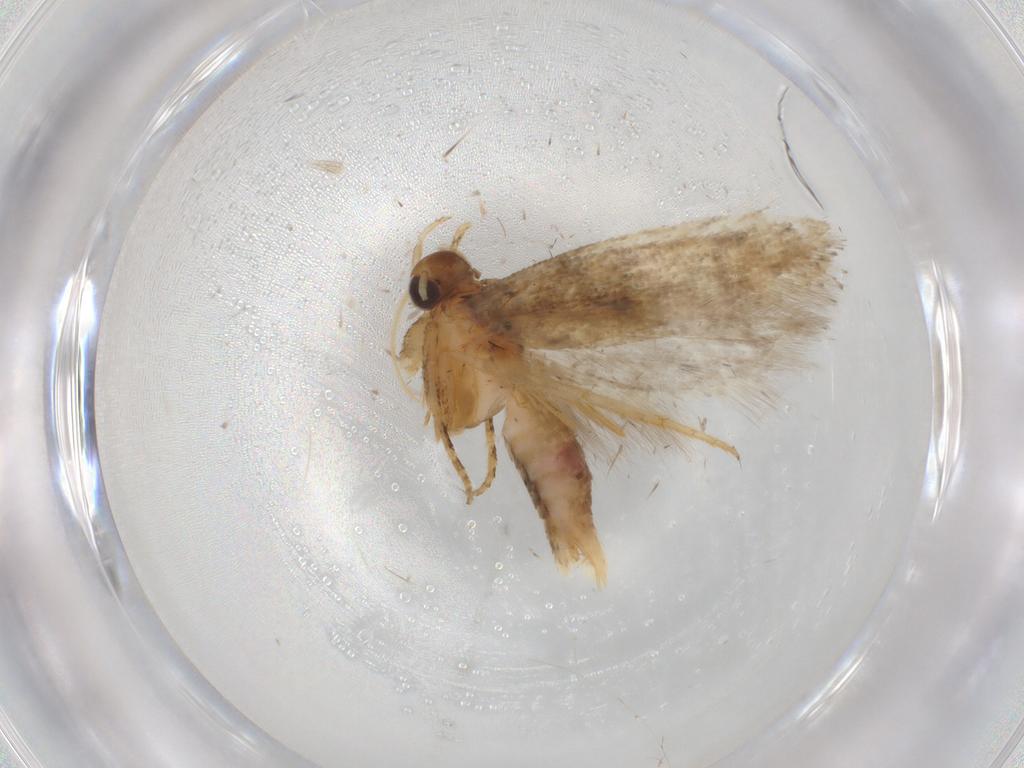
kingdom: Animalia
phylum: Arthropoda
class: Insecta
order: Lepidoptera
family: Gelechiidae
